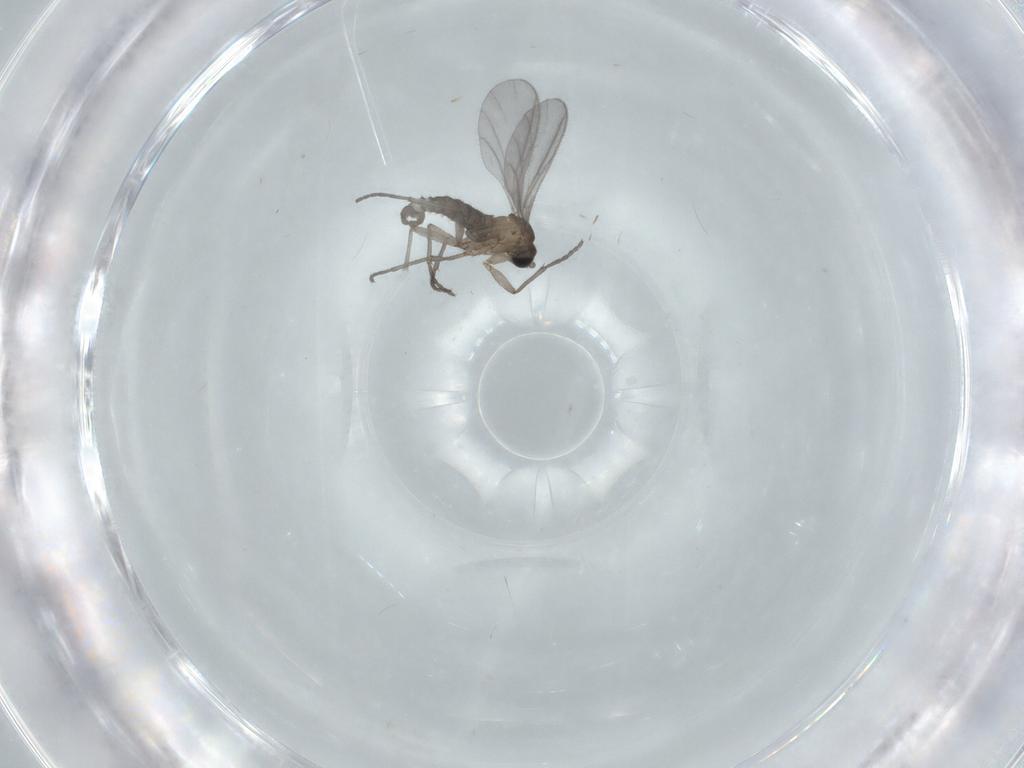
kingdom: Animalia
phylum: Arthropoda
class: Insecta
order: Diptera
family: Sciaridae
